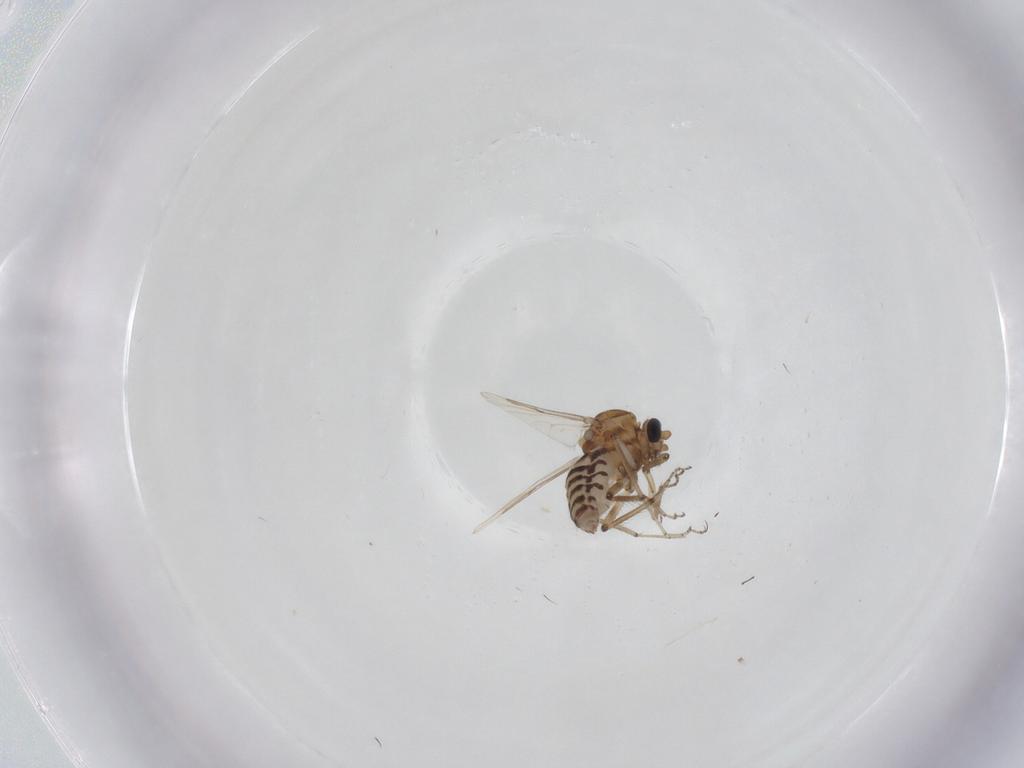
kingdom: Animalia
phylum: Arthropoda
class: Insecta
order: Diptera
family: Ceratopogonidae
